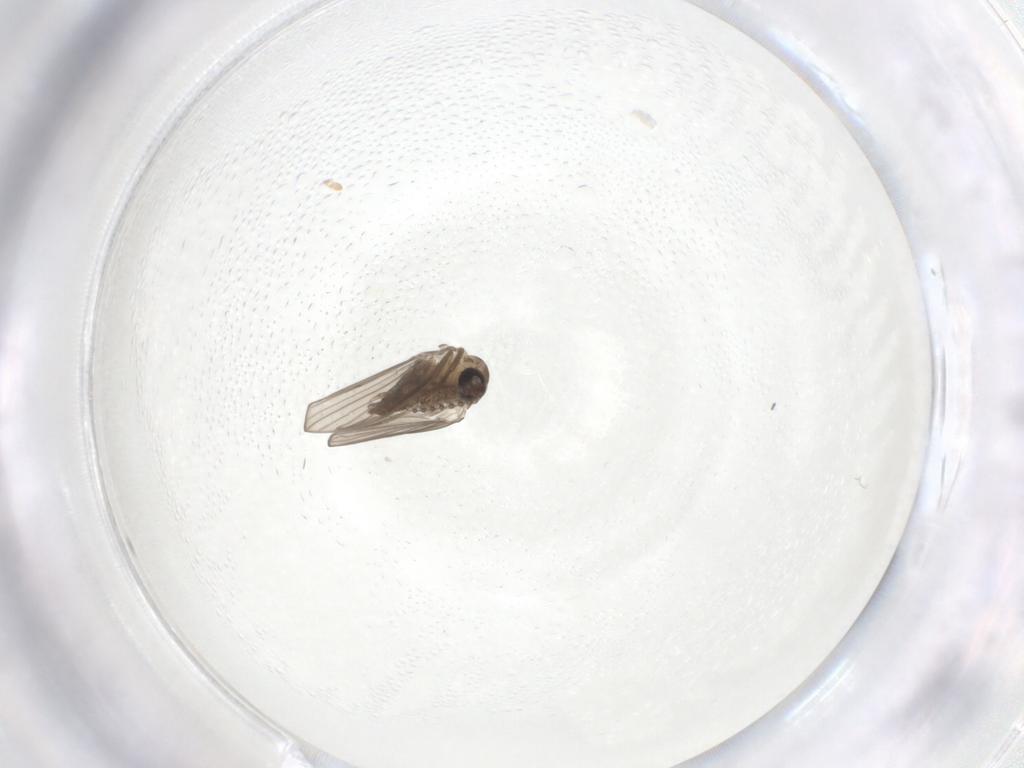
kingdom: Animalia
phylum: Arthropoda
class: Insecta
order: Diptera
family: Psychodidae
